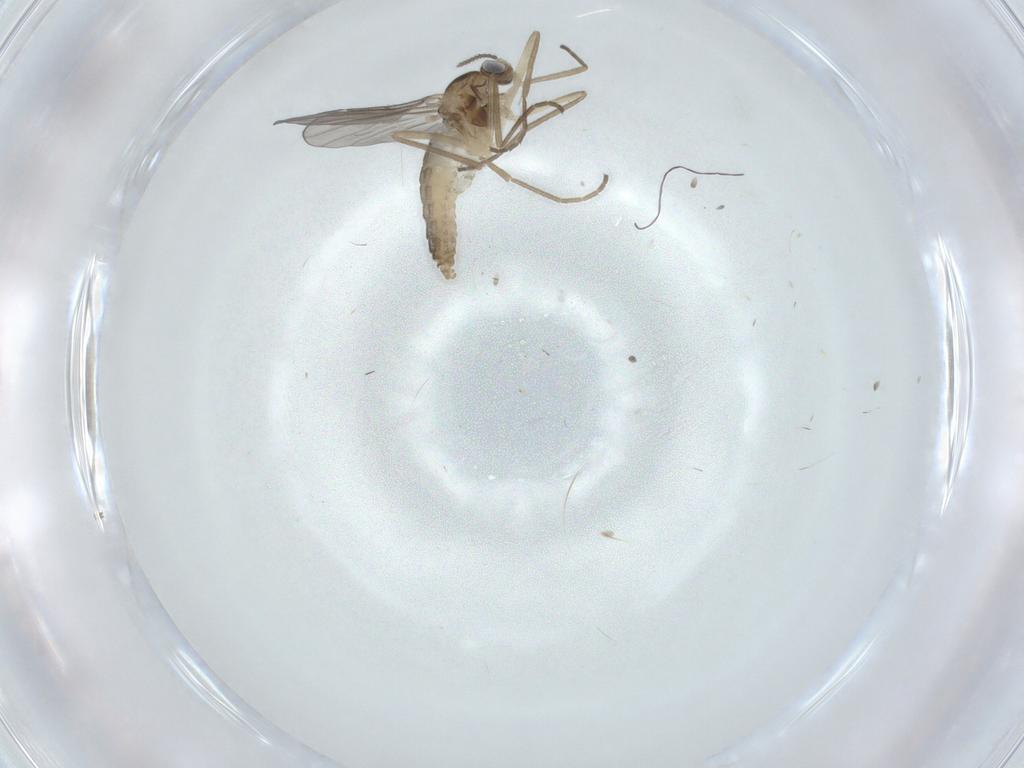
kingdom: Animalia
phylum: Arthropoda
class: Insecta
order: Diptera
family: Cecidomyiidae
